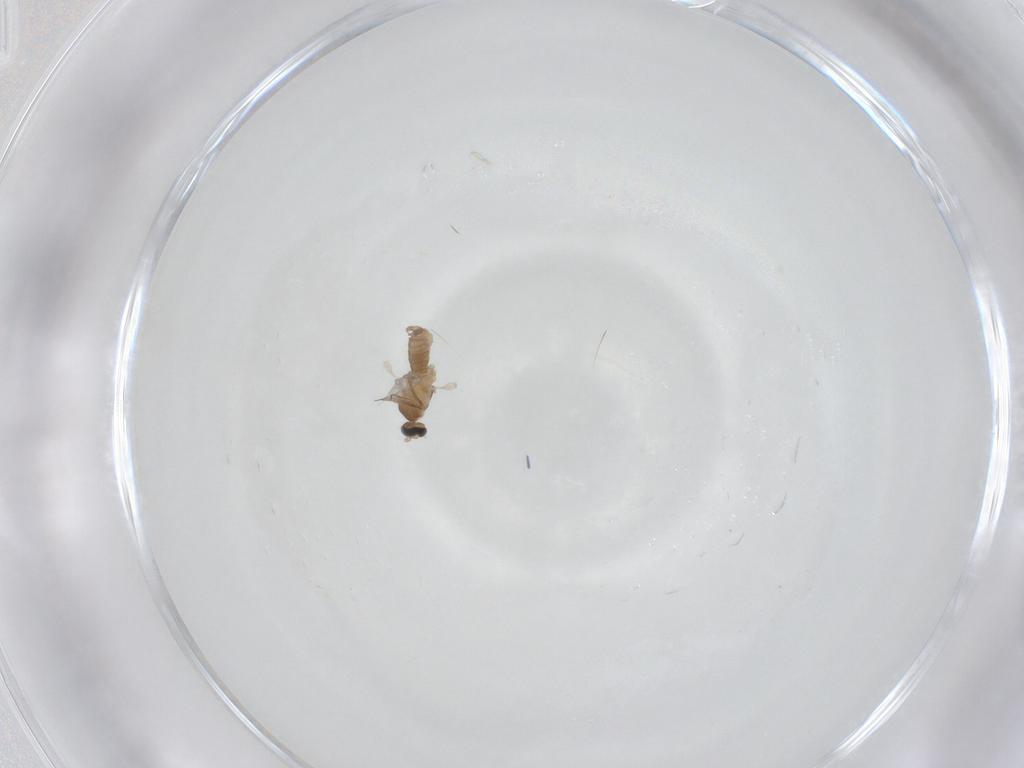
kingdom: Animalia
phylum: Arthropoda
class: Insecta
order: Diptera
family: Cecidomyiidae
